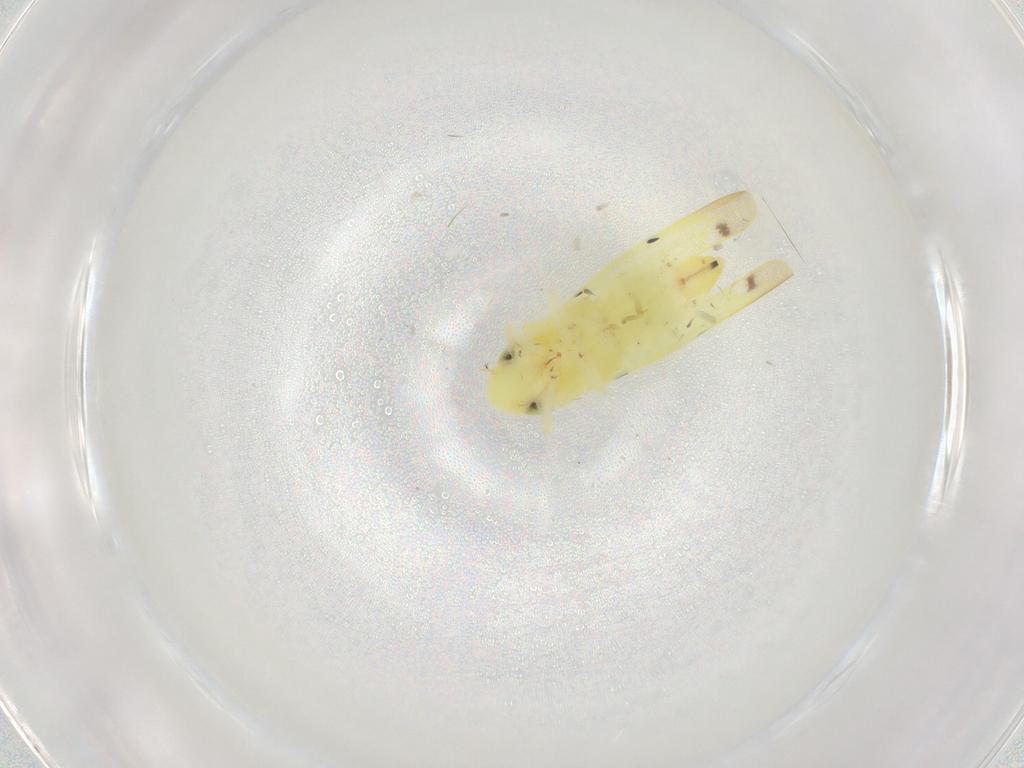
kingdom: Animalia
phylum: Arthropoda
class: Insecta
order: Hemiptera
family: Cicadellidae
